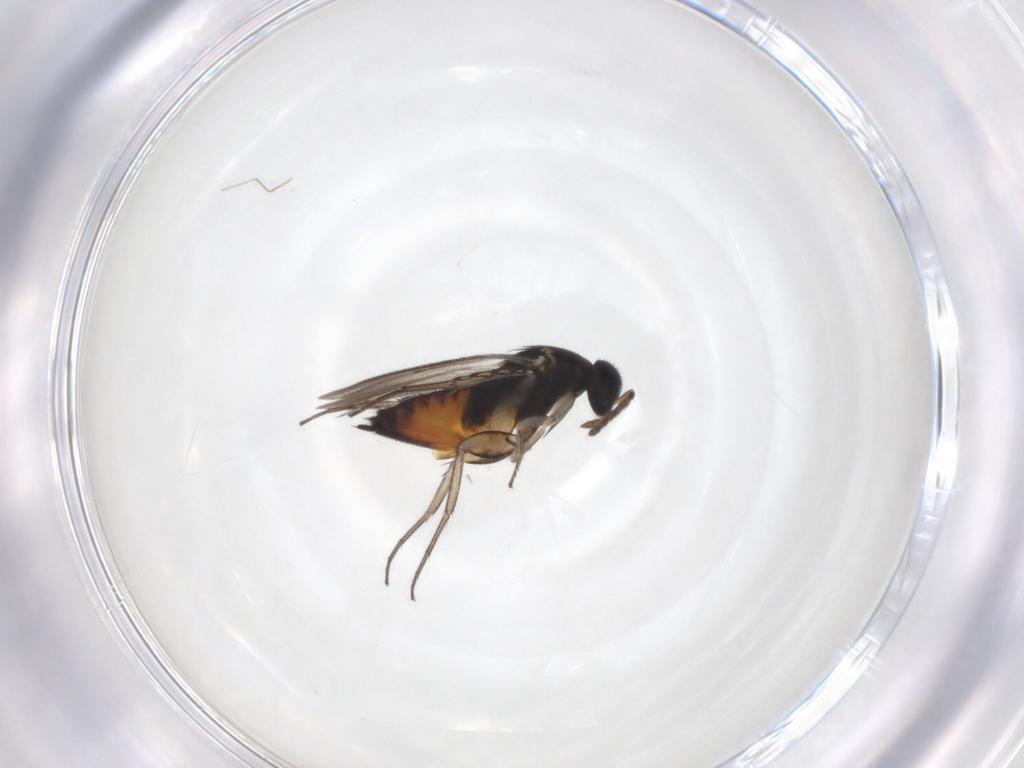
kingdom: Animalia
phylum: Arthropoda
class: Insecta
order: Hymenoptera
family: Eulophidae
